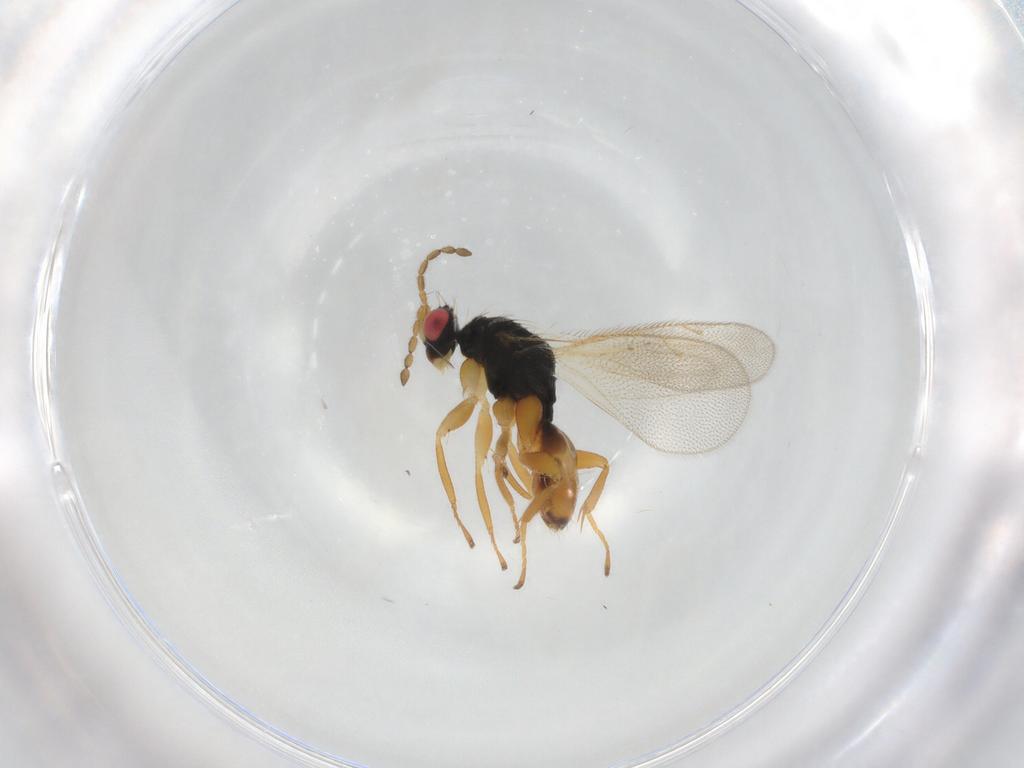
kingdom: Animalia
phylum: Arthropoda
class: Insecta
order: Hymenoptera
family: Eulophidae
